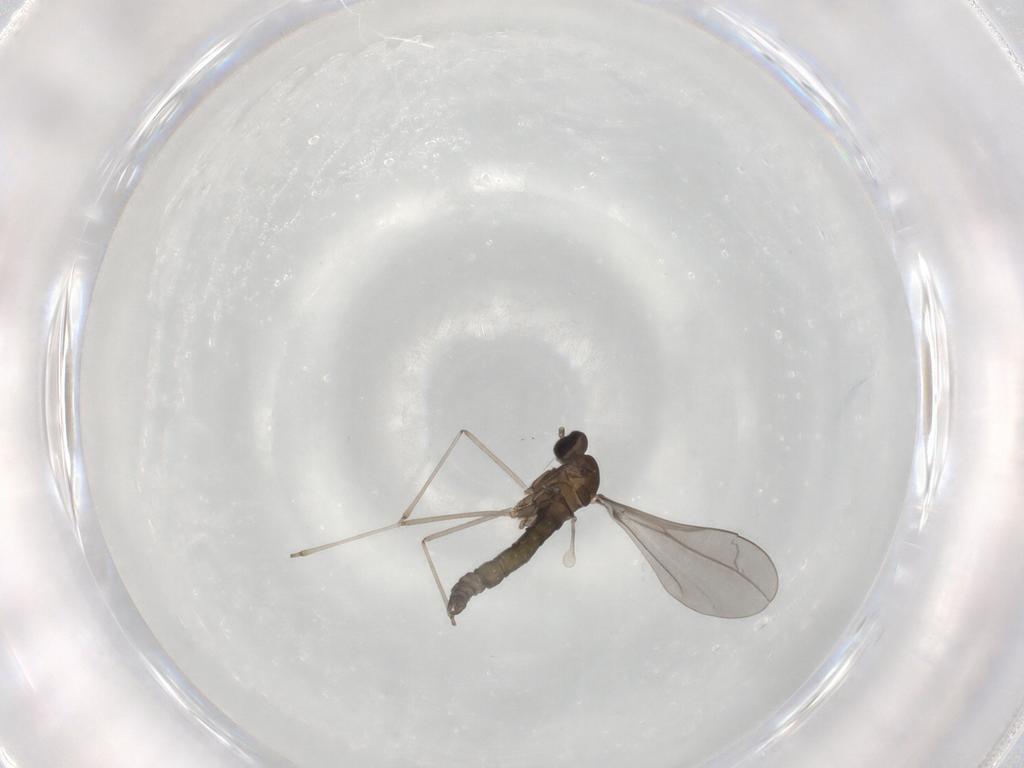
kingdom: Animalia
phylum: Arthropoda
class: Insecta
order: Diptera
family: Cecidomyiidae
